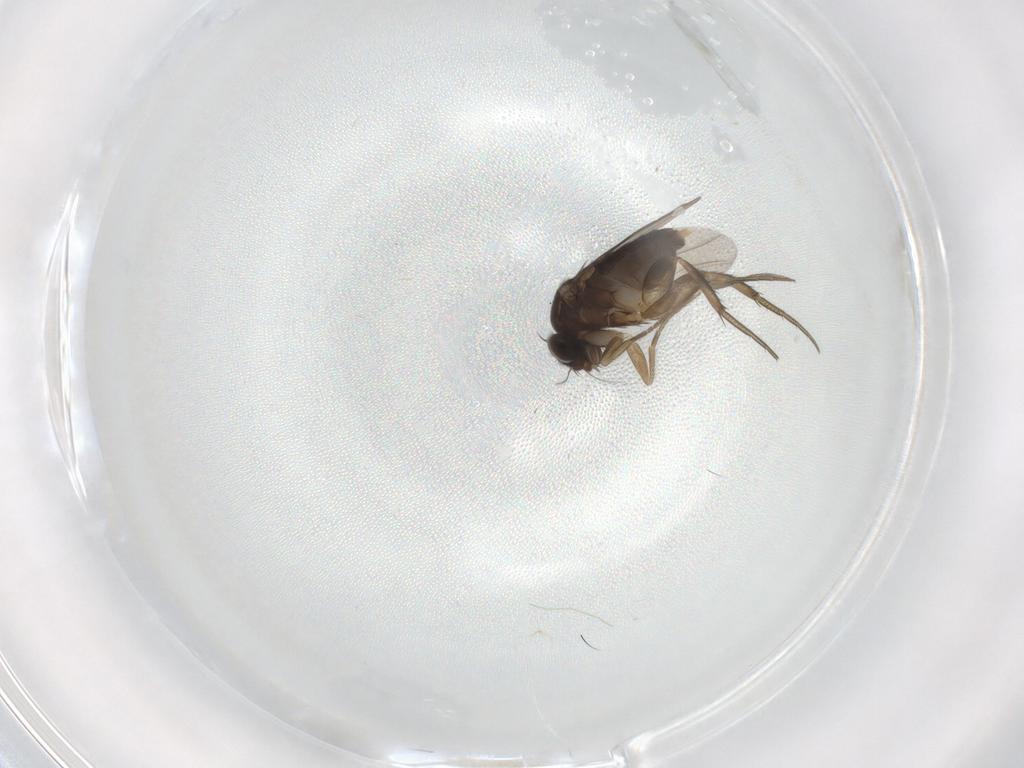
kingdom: Animalia
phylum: Arthropoda
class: Insecta
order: Diptera
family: Phoridae
